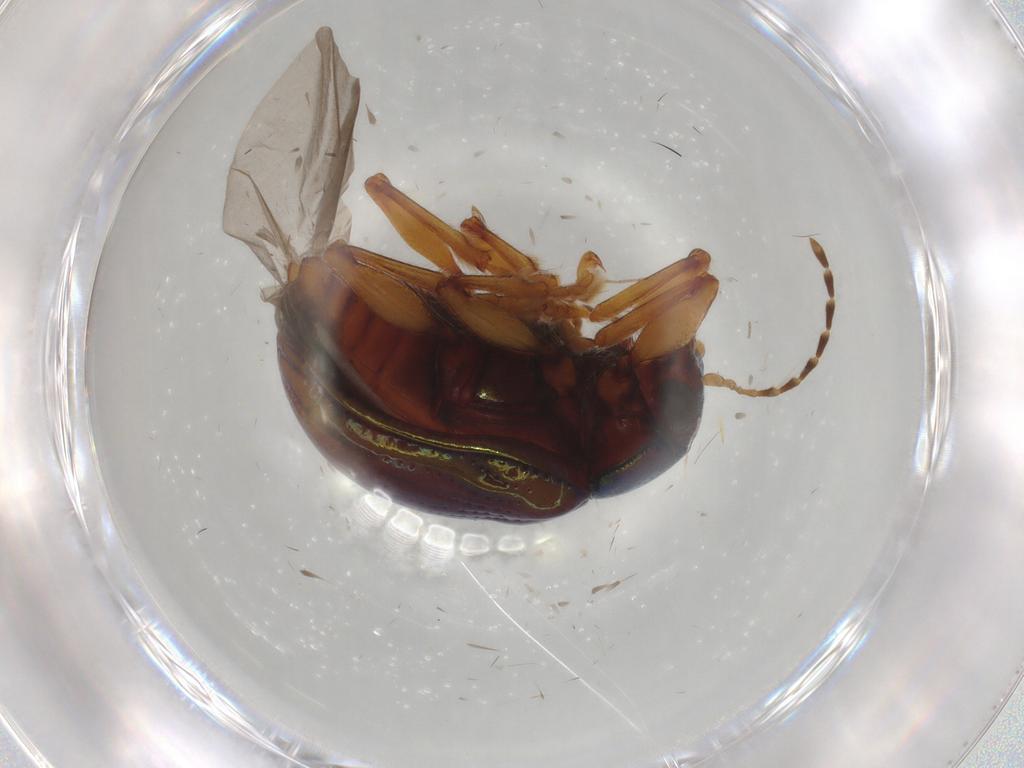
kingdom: Animalia
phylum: Arthropoda
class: Insecta
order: Coleoptera
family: Chrysomelidae
